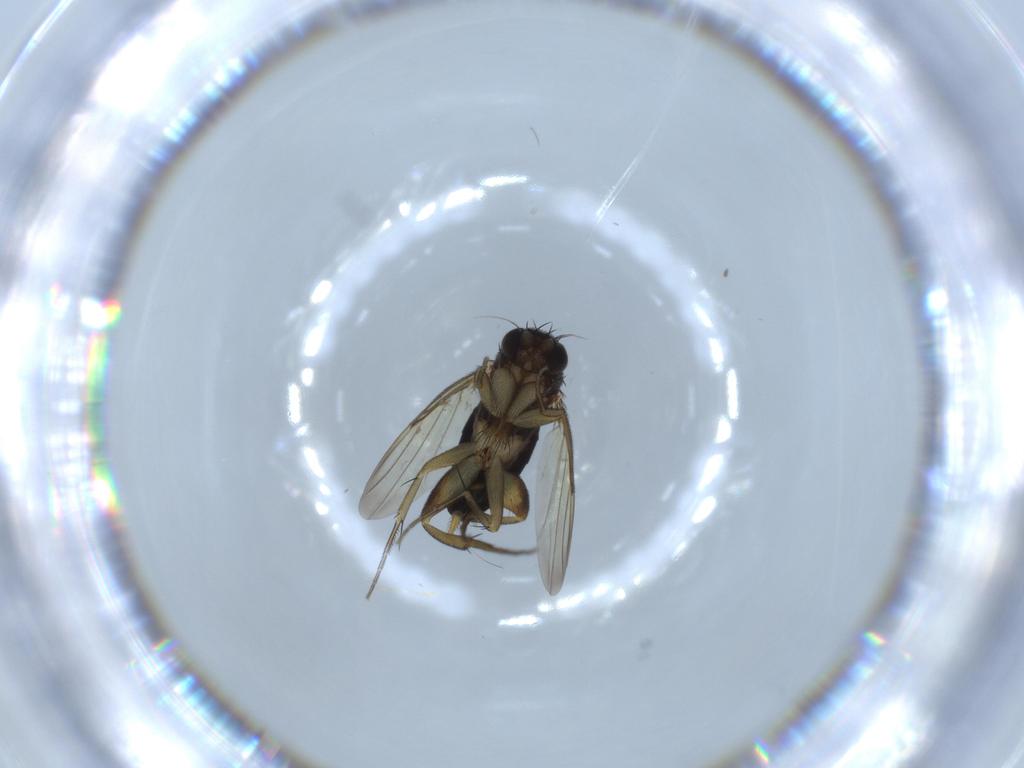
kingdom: Animalia
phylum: Arthropoda
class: Insecta
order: Diptera
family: Phoridae
